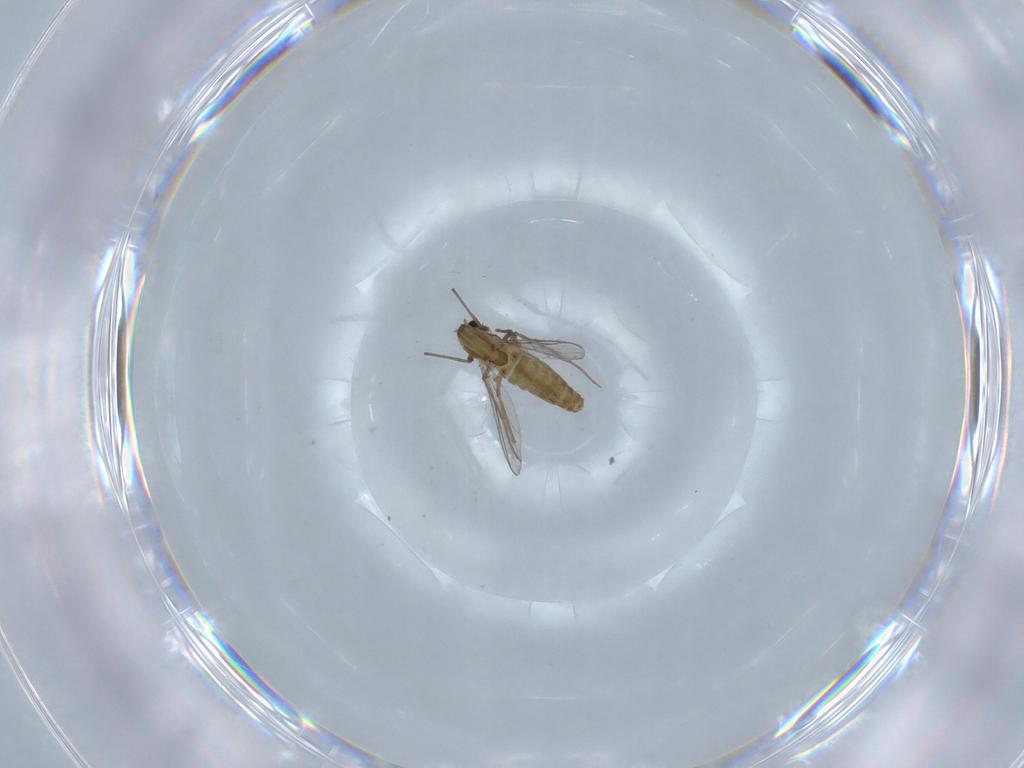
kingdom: Animalia
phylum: Arthropoda
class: Insecta
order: Diptera
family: Chironomidae
